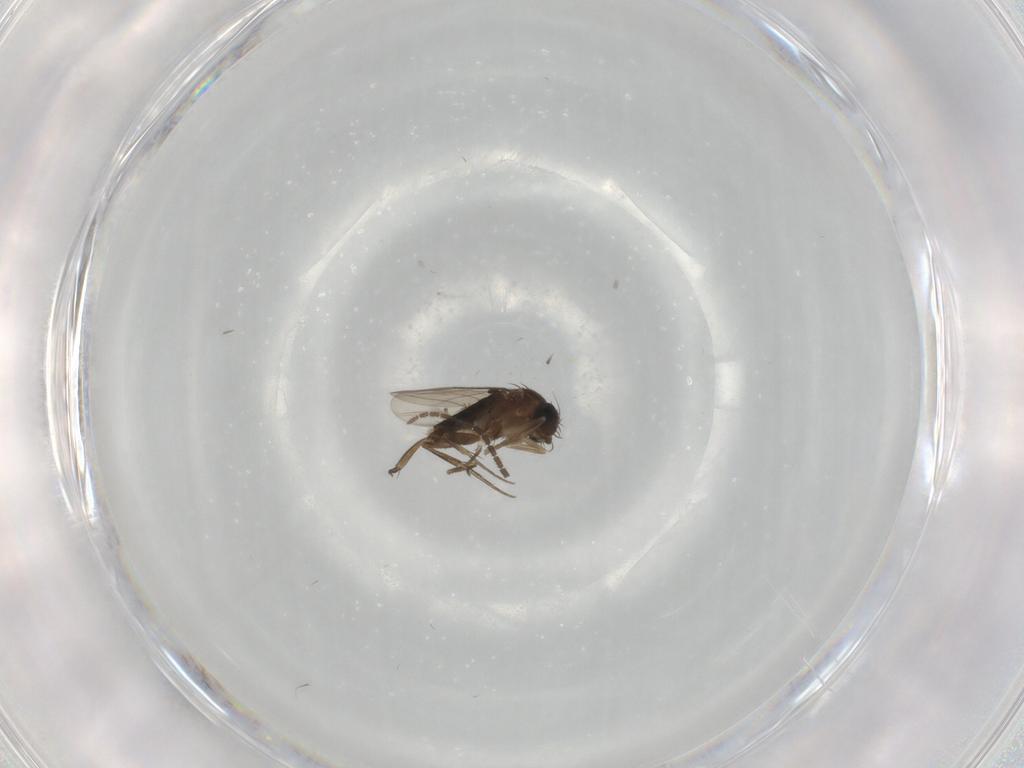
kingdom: Animalia
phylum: Arthropoda
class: Insecta
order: Diptera
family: Sciaridae
